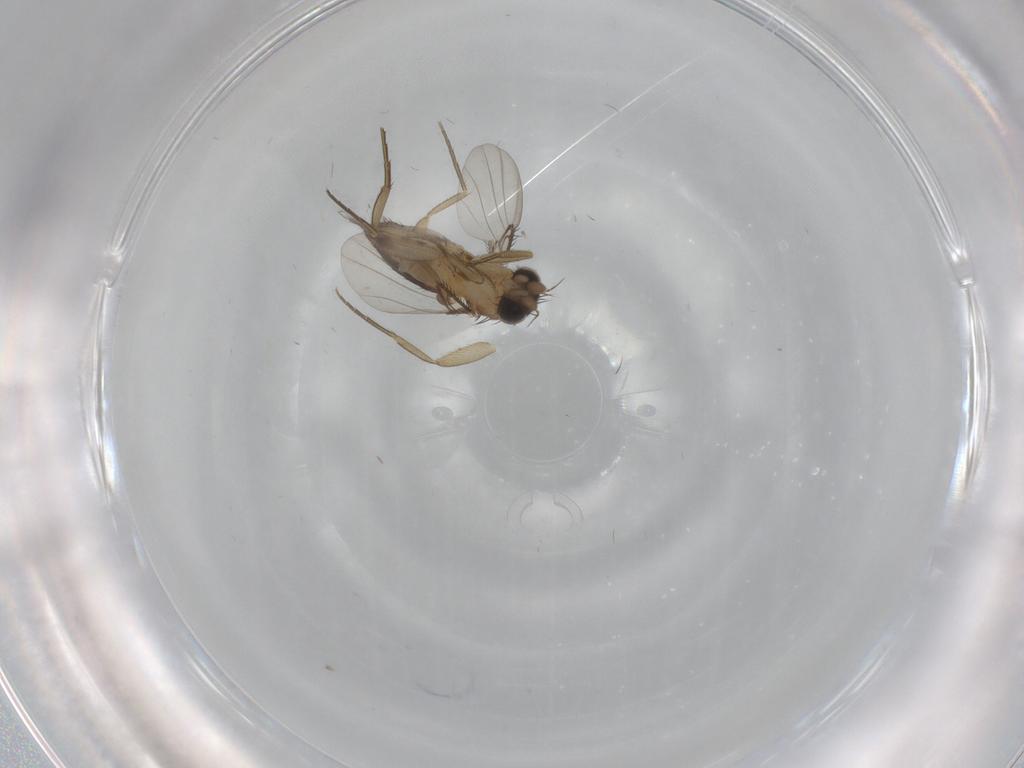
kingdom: Animalia
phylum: Arthropoda
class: Insecta
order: Diptera
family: Phoridae
